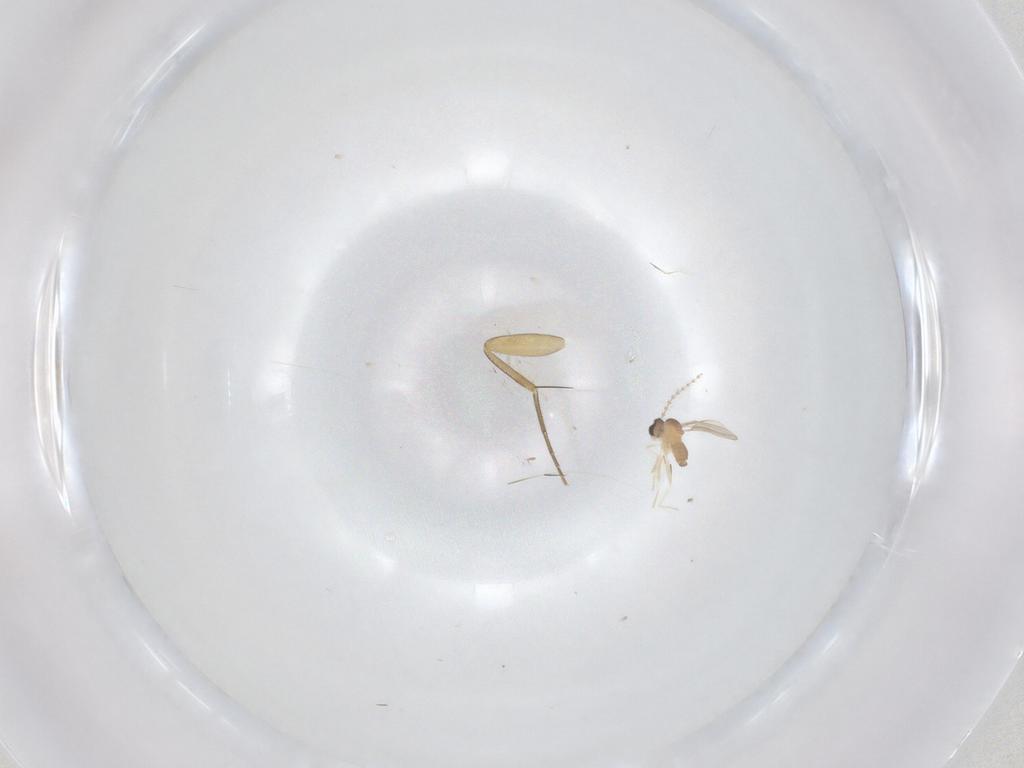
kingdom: Animalia
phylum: Arthropoda
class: Insecta
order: Diptera
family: Phoridae
